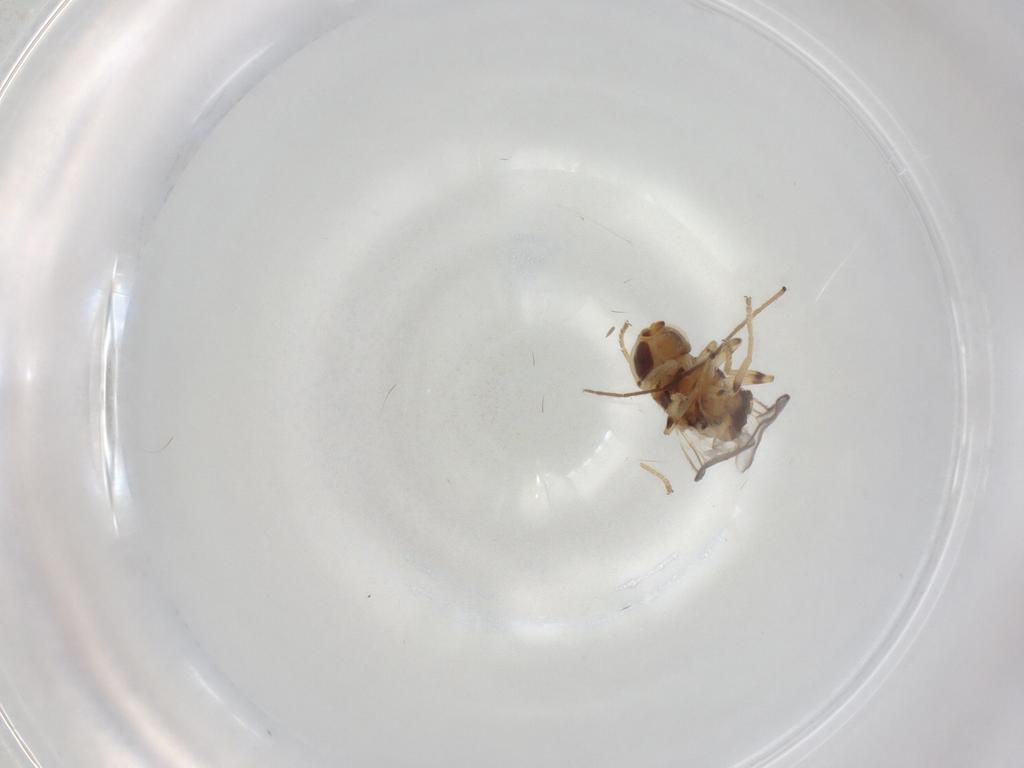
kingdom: Animalia
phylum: Arthropoda
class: Insecta
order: Diptera
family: Chloropidae
